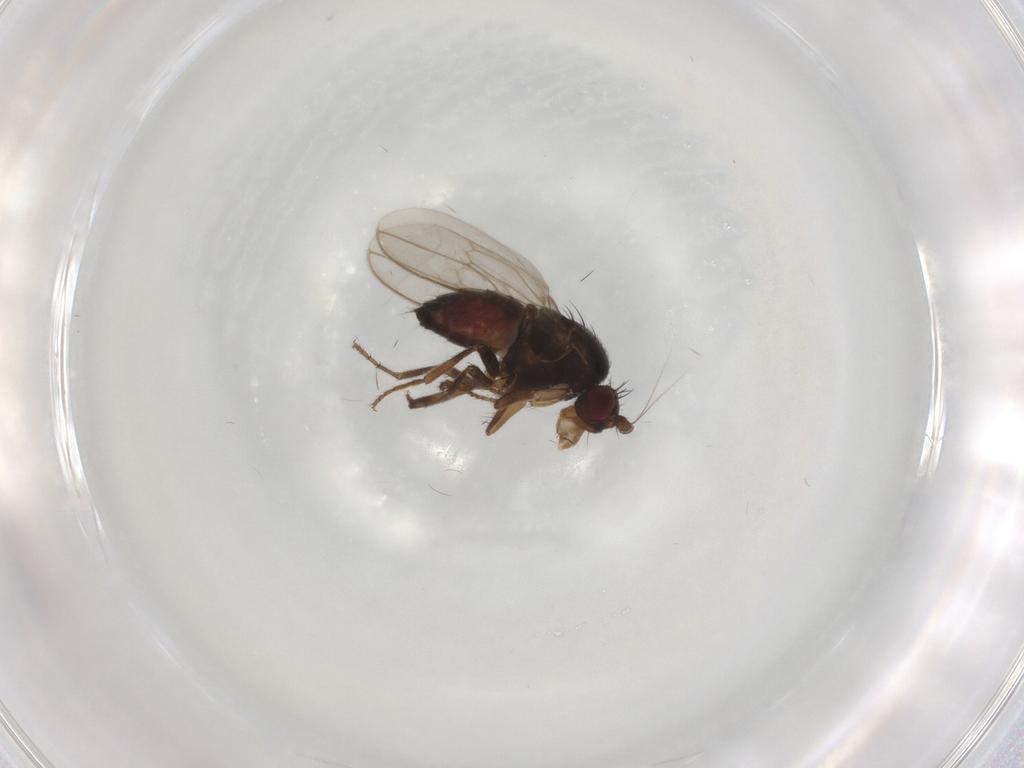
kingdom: Animalia
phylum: Arthropoda
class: Insecta
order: Diptera
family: Sphaeroceridae
